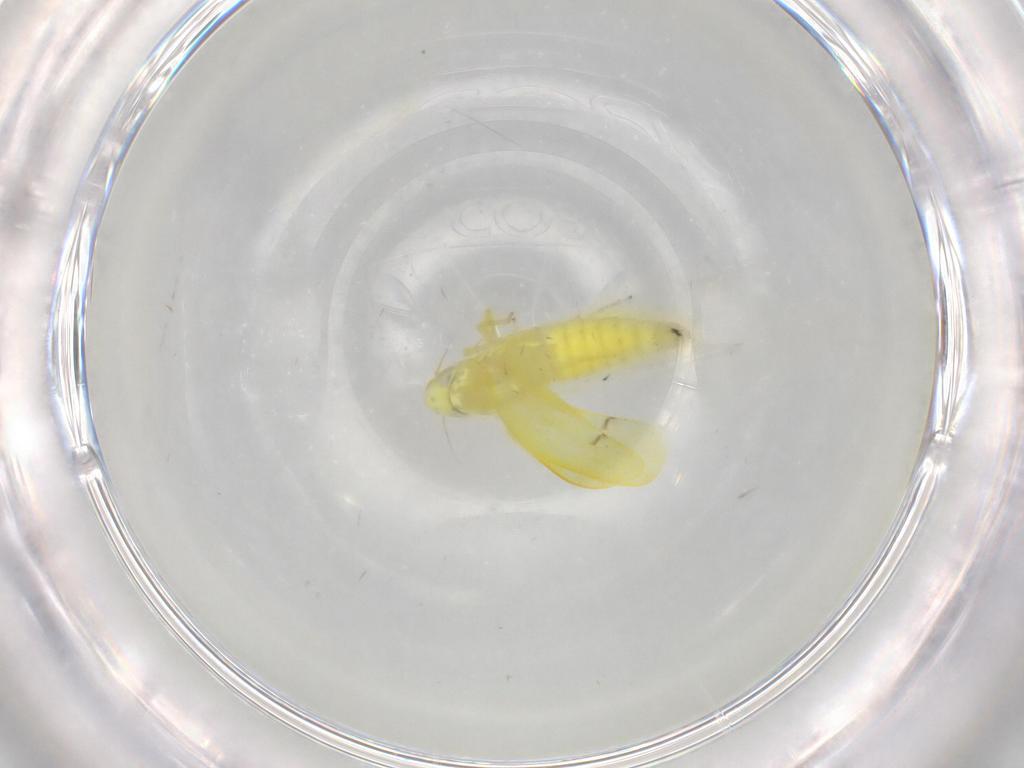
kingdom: Animalia
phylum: Arthropoda
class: Insecta
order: Hemiptera
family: Cicadellidae
